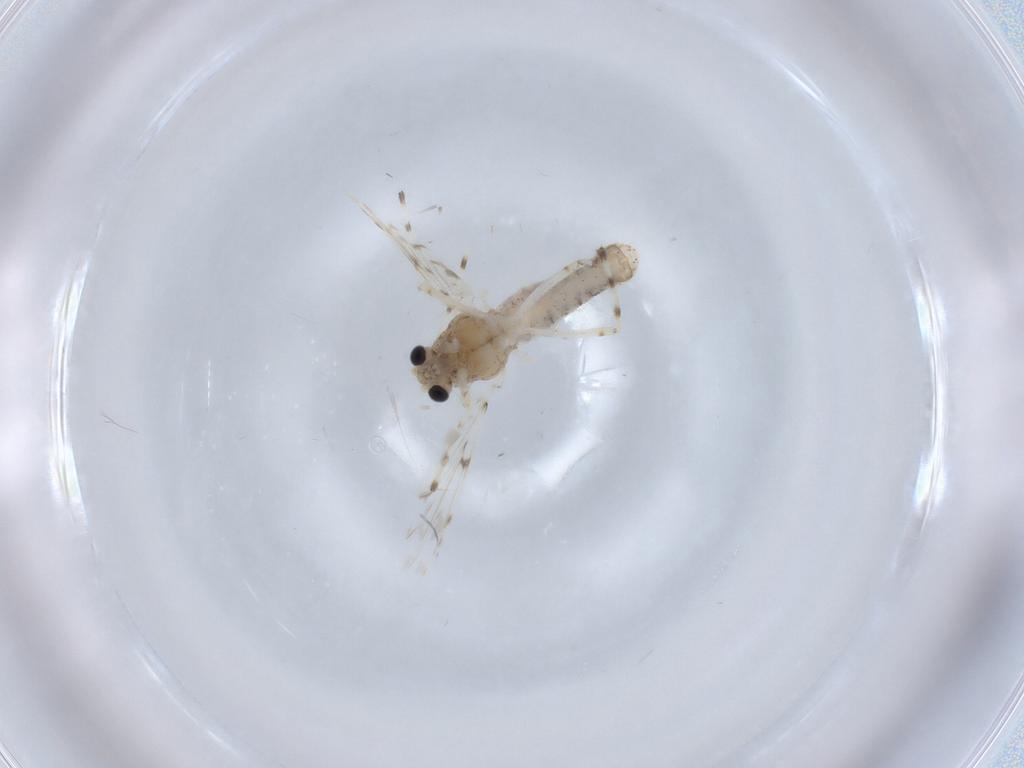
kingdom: Animalia
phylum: Arthropoda
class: Insecta
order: Diptera
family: Chironomidae
